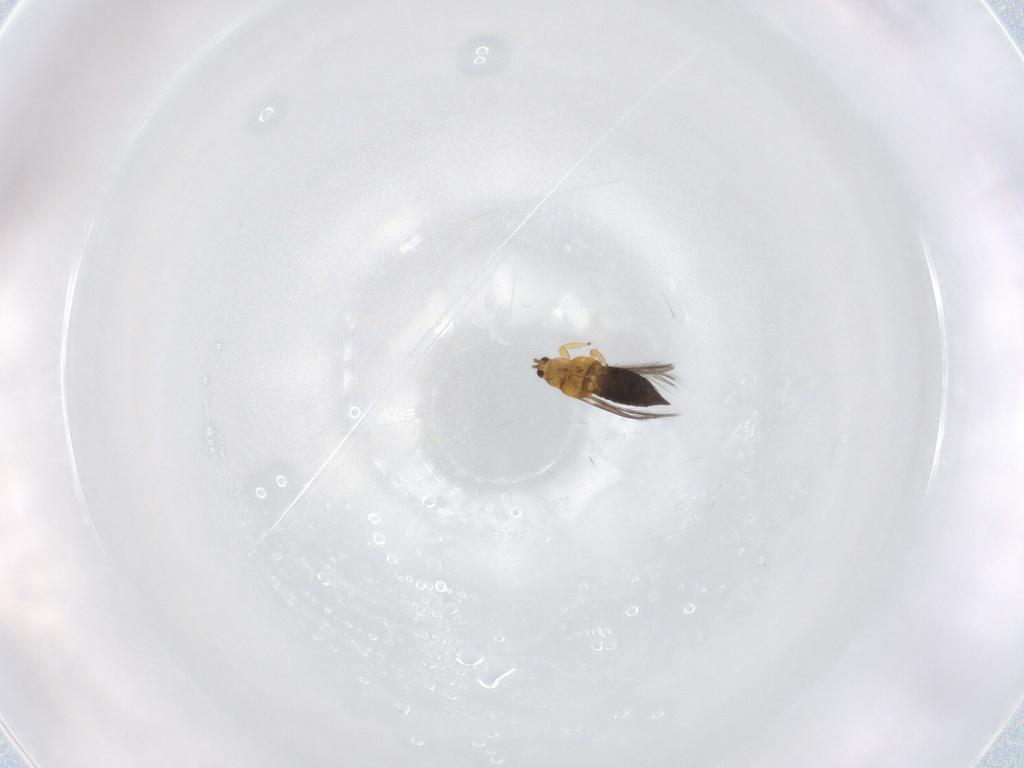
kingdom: Animalia
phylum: Arthropoda
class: Insecta
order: Thysanoptera
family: Thripidae
